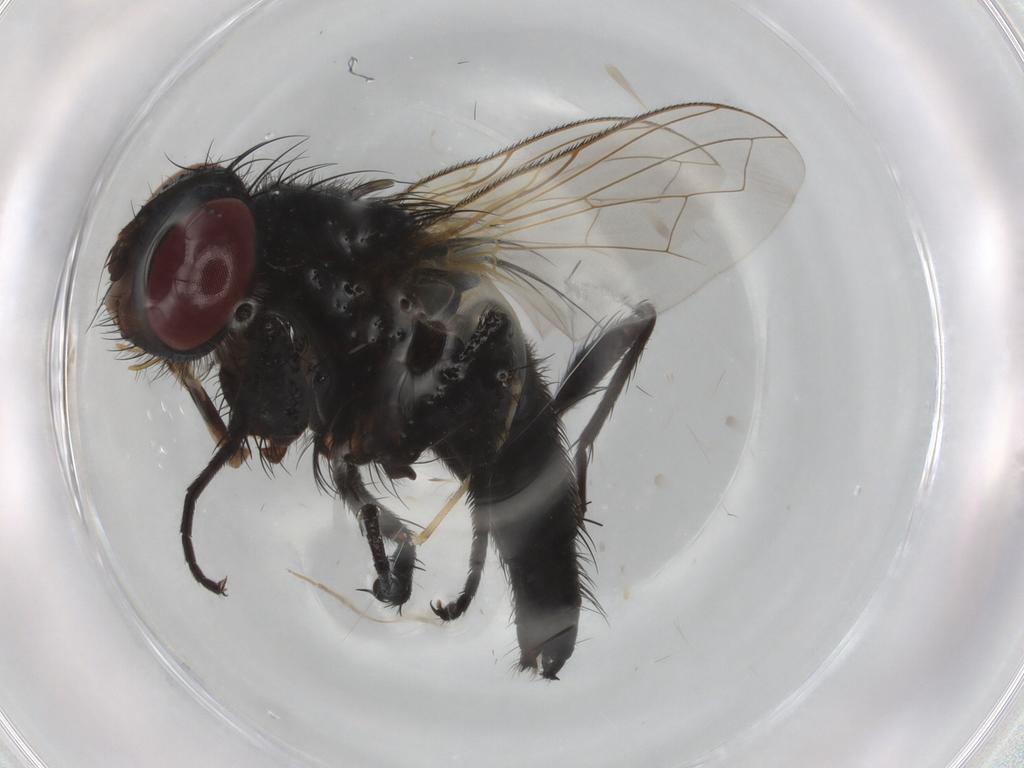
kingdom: Animalia
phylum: Arthropoda
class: Insecta
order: Diptera
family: Tachinidae
